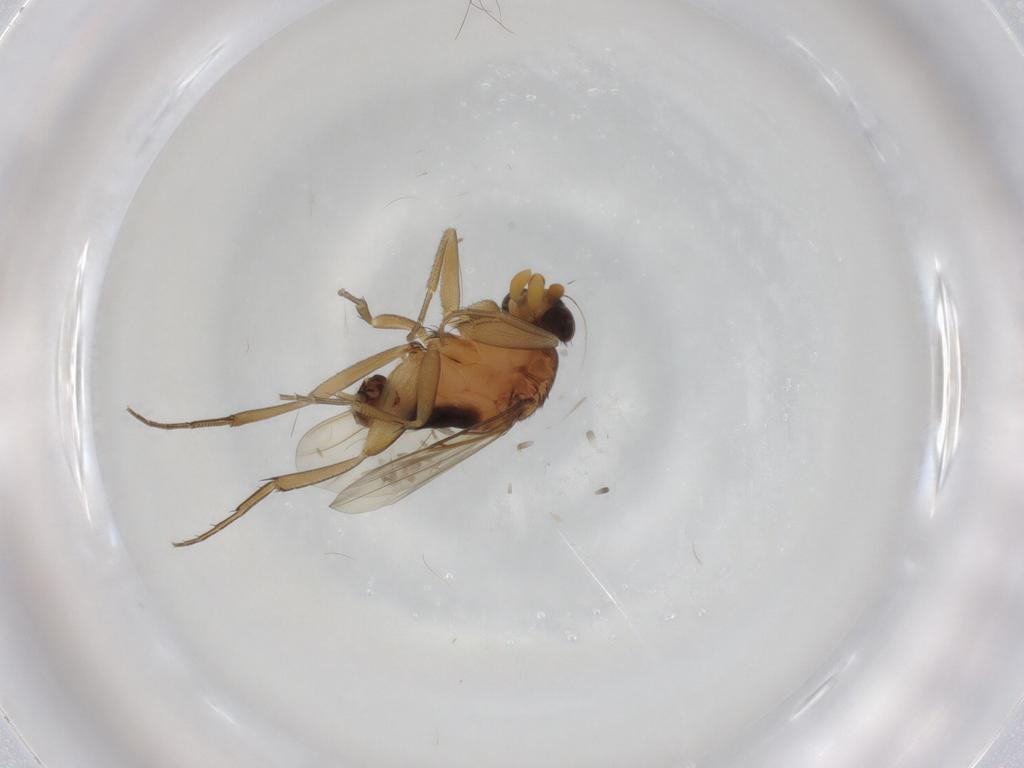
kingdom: Animalia
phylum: Arthropoda
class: Insecta
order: Diptera
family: Cecidomyiidae
